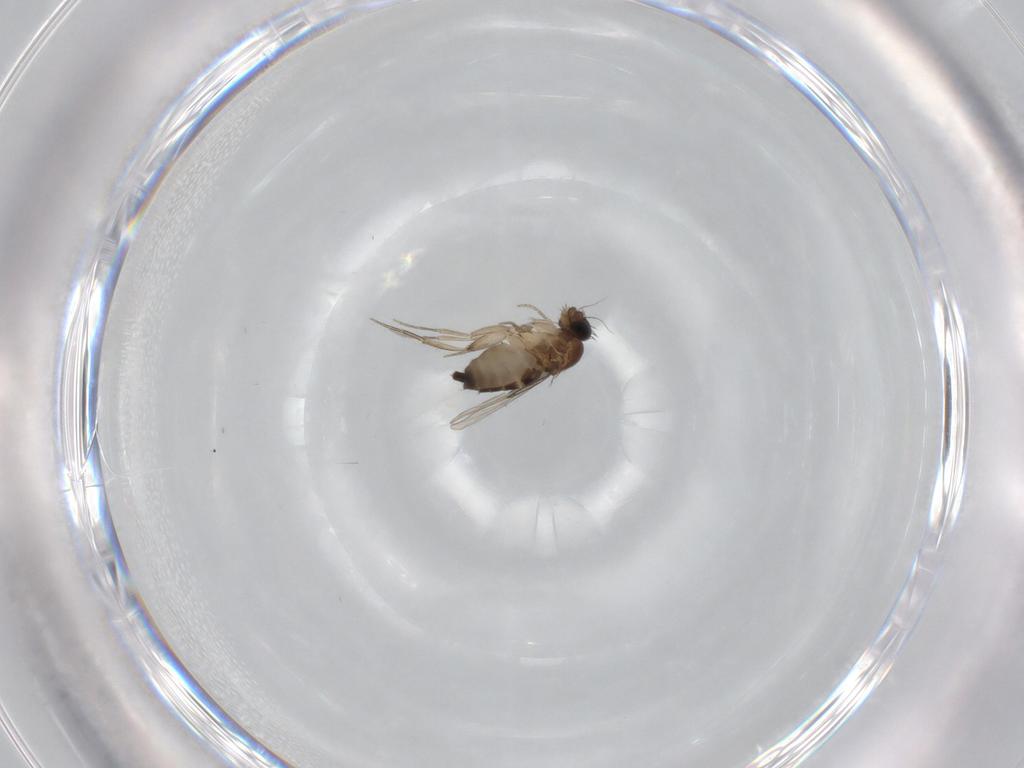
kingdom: Animalia
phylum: Arthropoda
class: Insecta
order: Diptera
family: Phoridae
